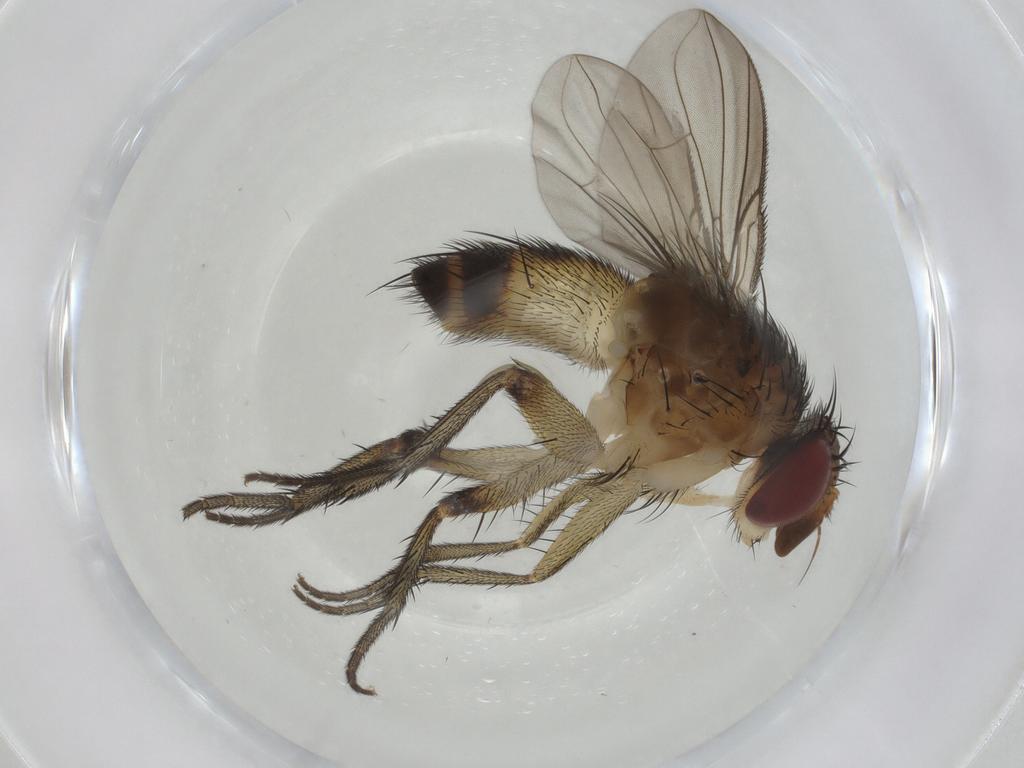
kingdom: Animalia
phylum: Arthropoda
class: Insecta
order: Diptera
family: Tachinidae
